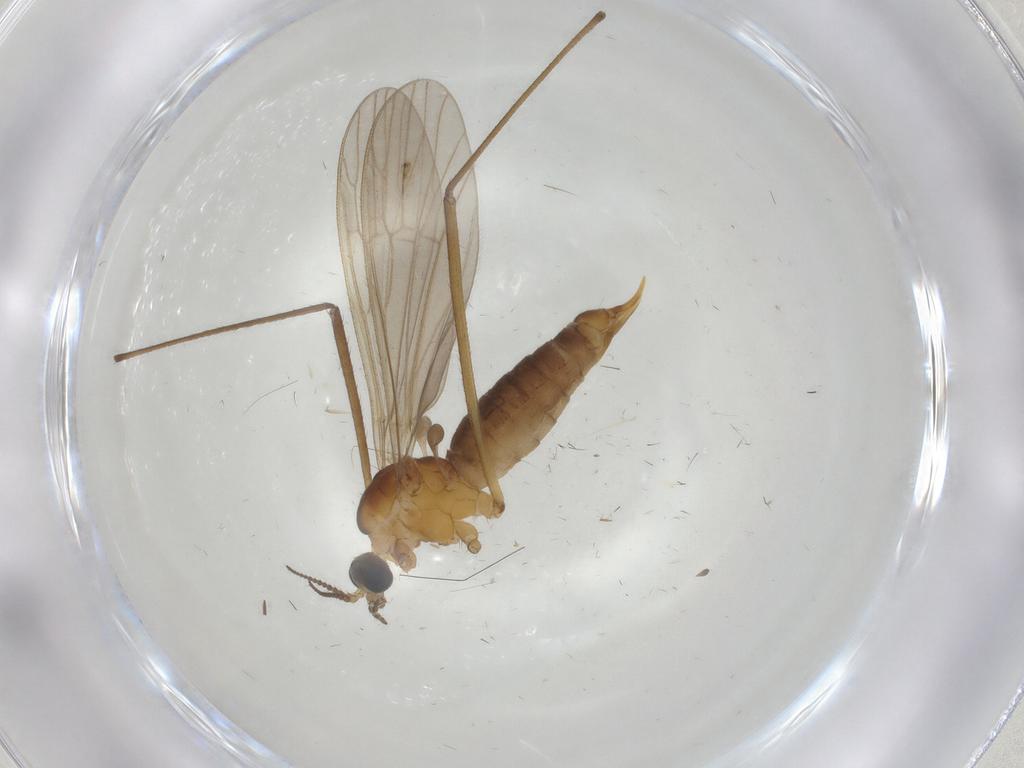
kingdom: Animalia
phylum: Arthropoda
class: Insecta
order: Diptera
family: Limoniidae
